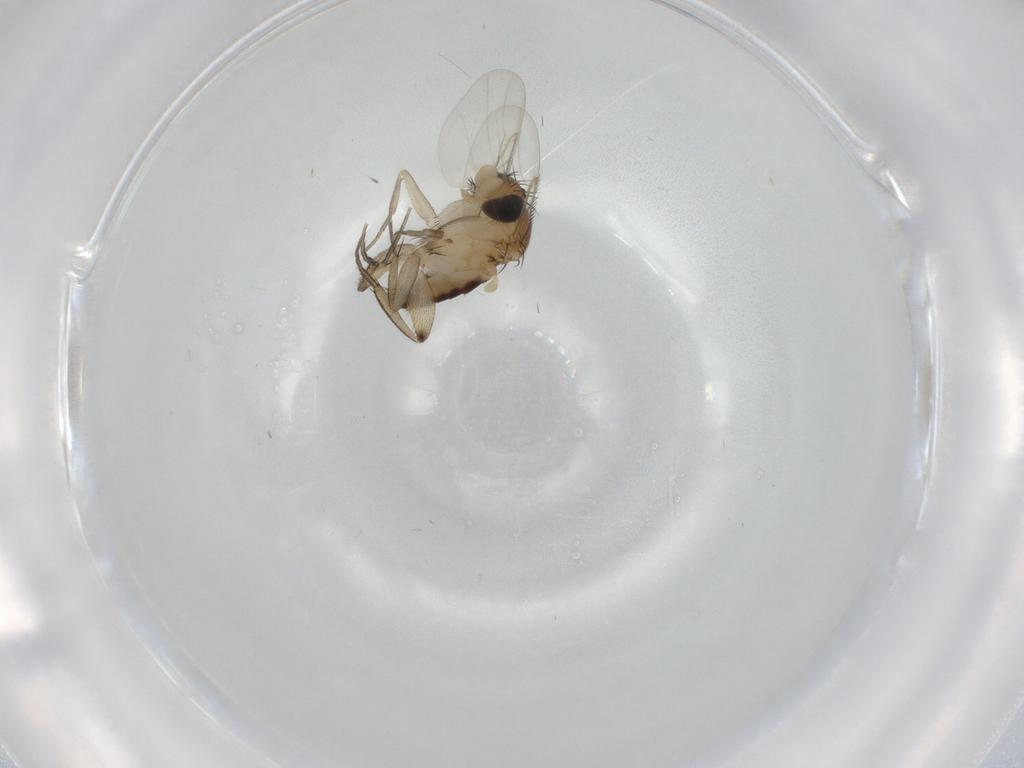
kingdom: Animalia
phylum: Arthropoda
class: Insecta
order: Diptera
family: Phoridae
